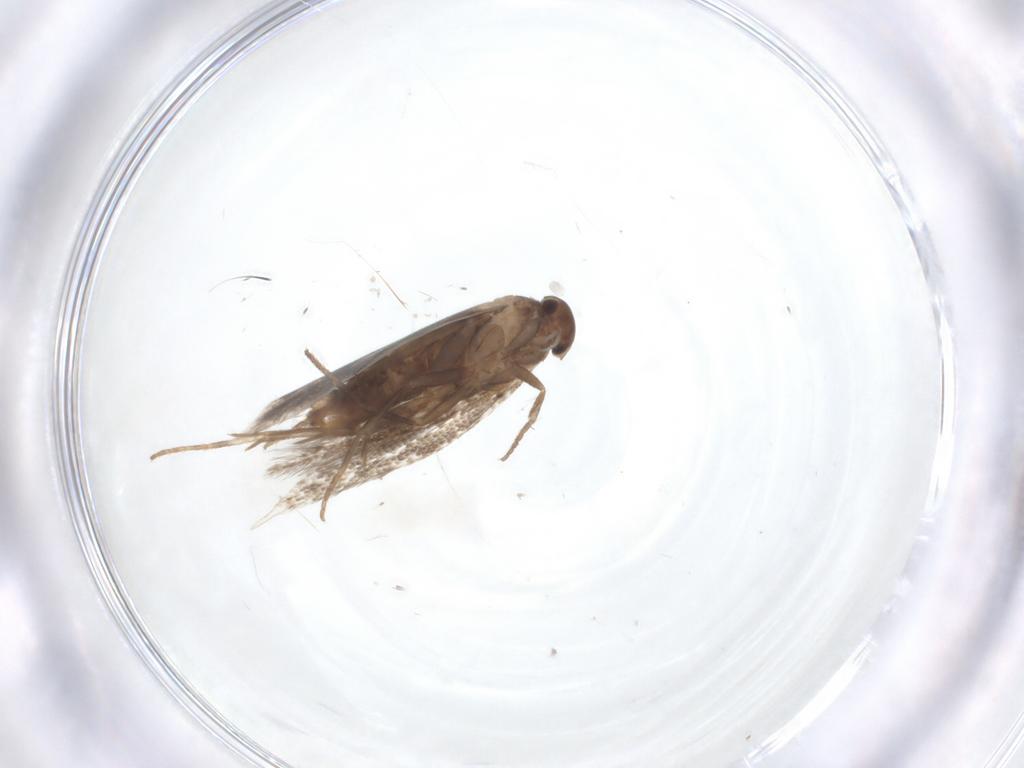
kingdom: Animalia
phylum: Arthropoda
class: Insecta
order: Lepidoptera
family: Elachistidae
